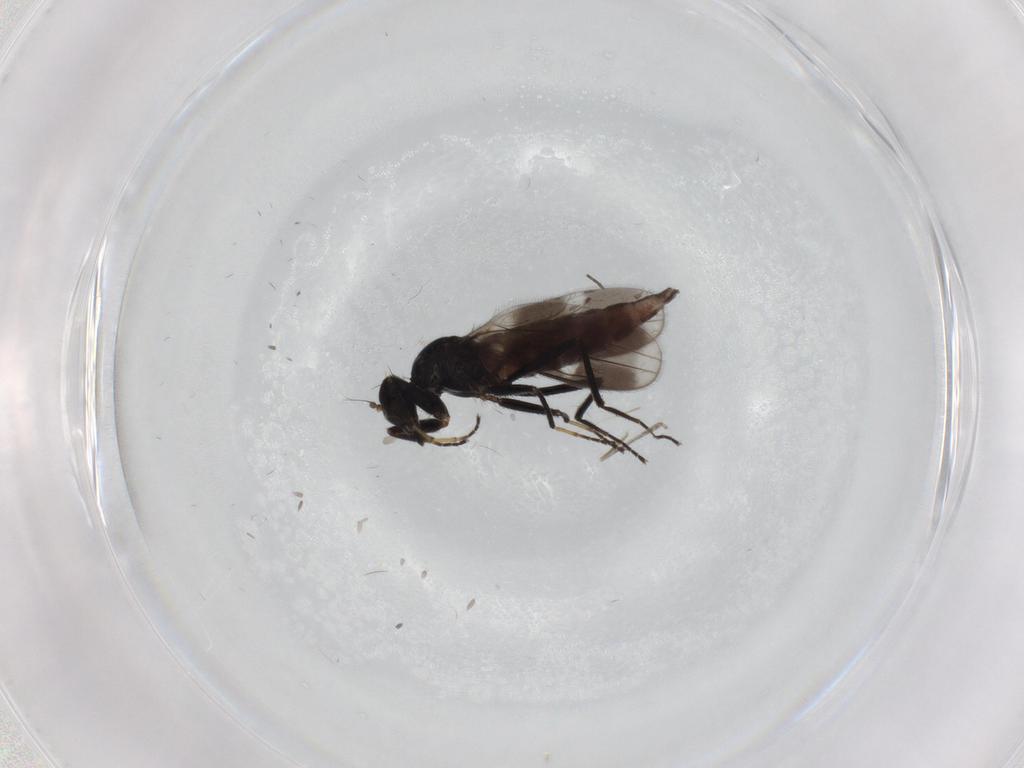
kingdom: Animalia
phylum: Arthropoda
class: Insecta
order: Diptera
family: Hybotidae
